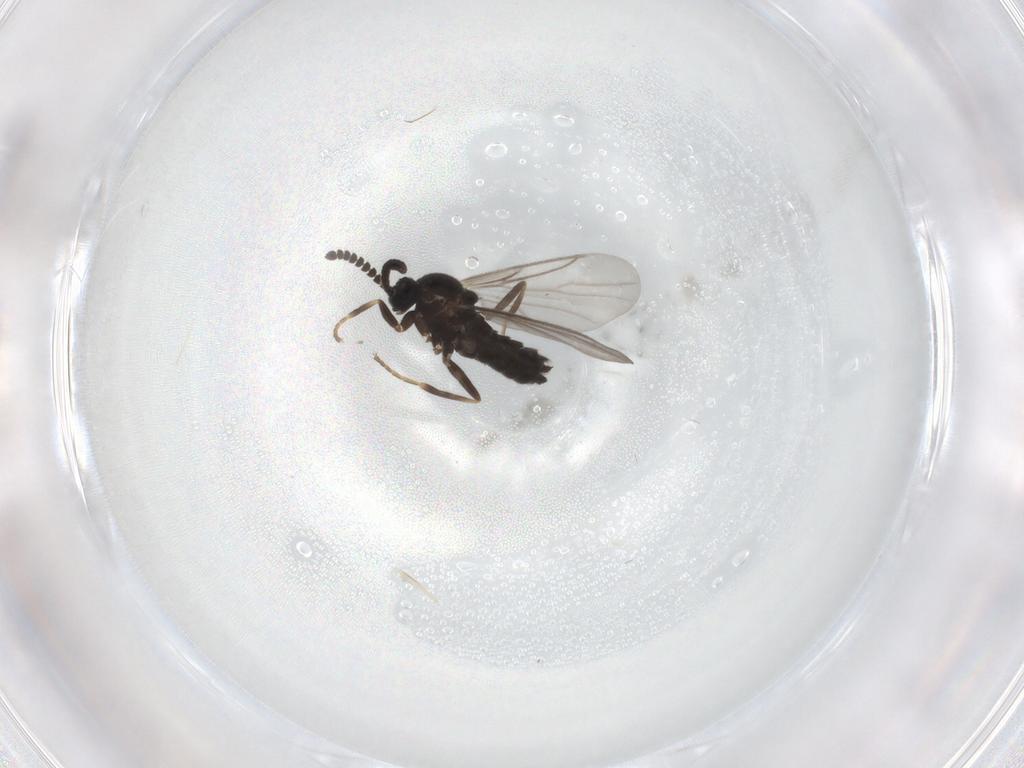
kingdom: Animalia
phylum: Arthropoda
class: Insecta
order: Diptera
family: Scatopsidae
